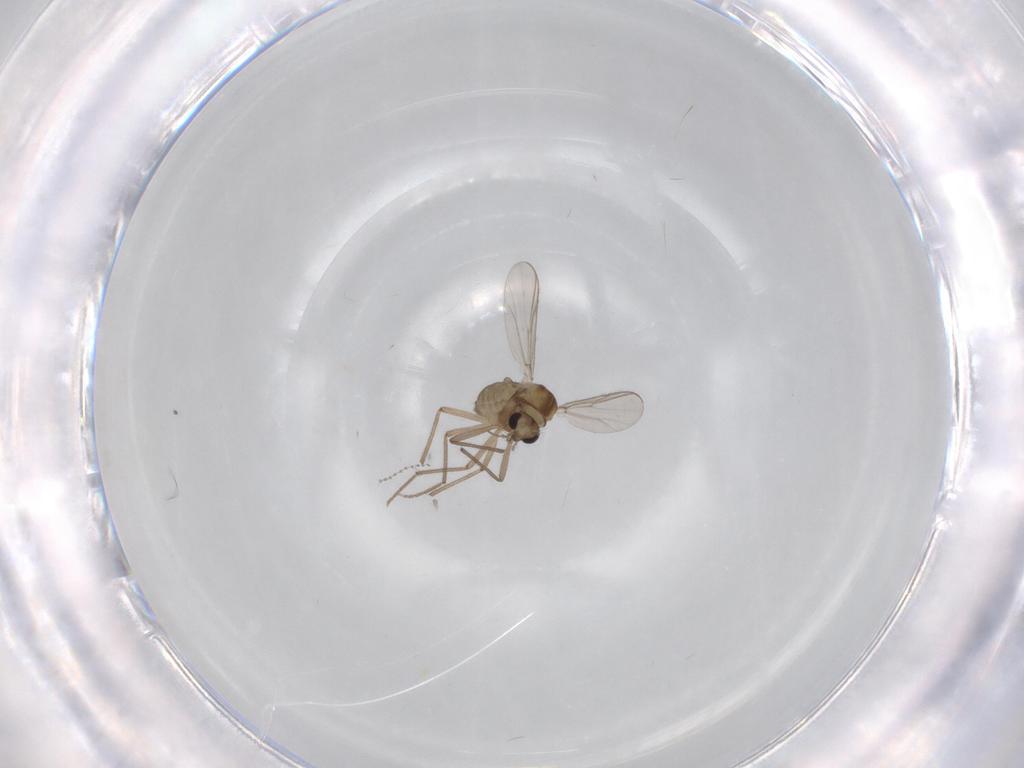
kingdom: Animalia
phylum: Arthropoda
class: Insecta
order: Diptera
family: Chironomidae
